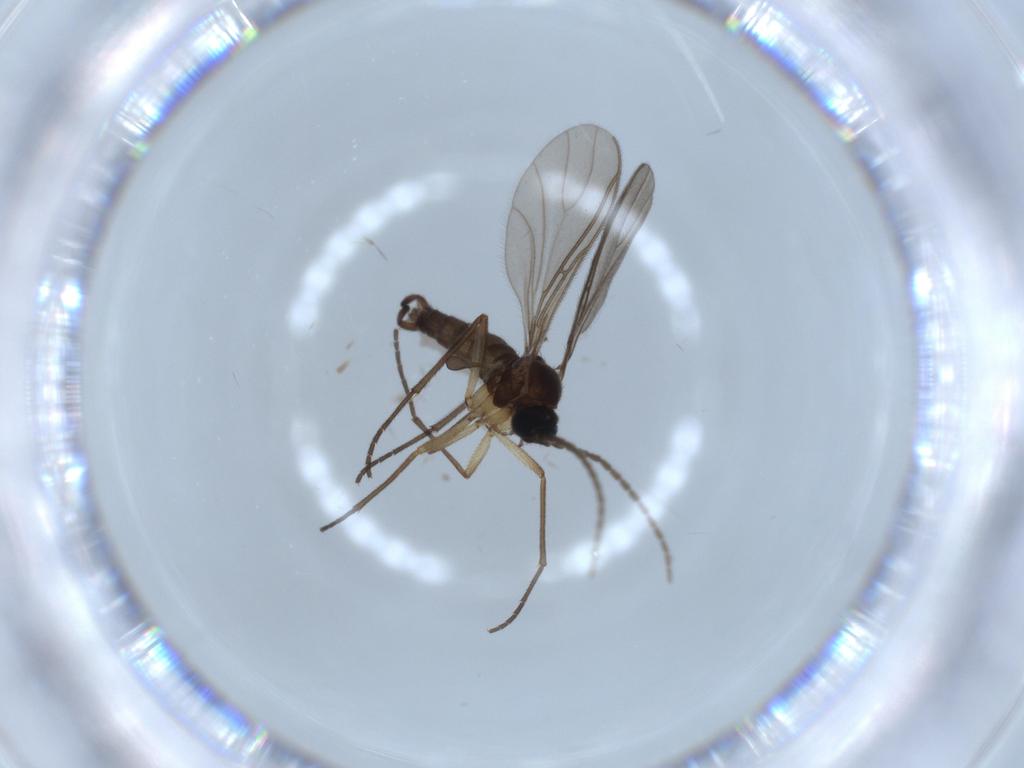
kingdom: Animalia
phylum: Arthropoda
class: Insecta
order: Diptera
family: Sciaridae
